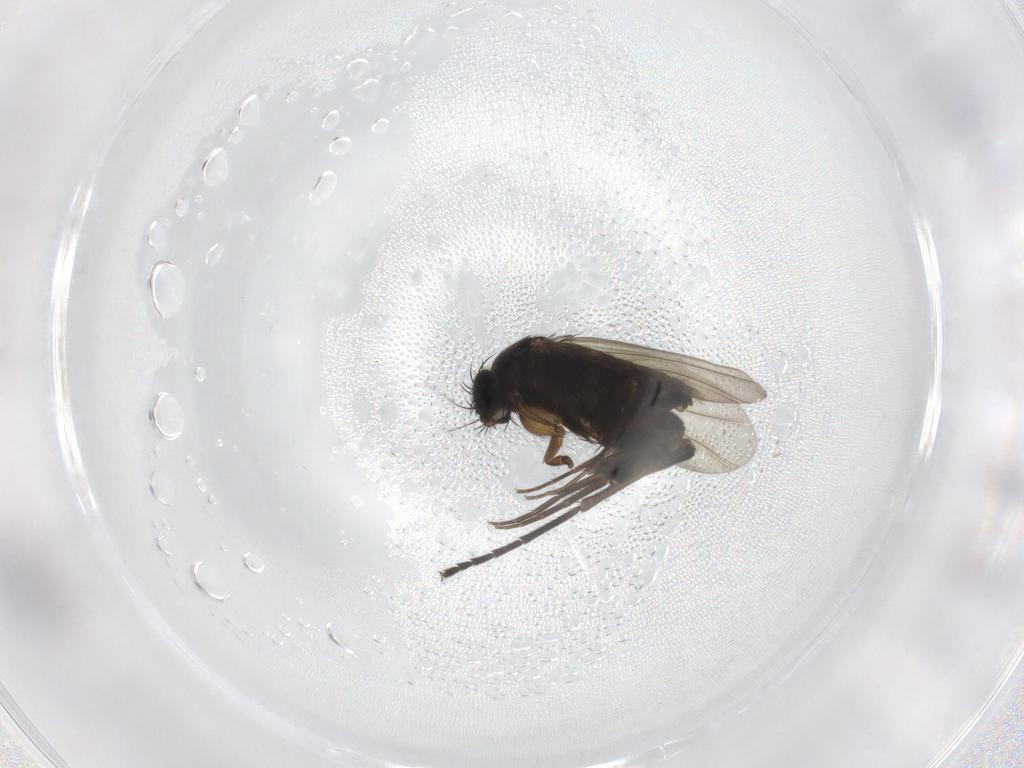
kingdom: Animalia
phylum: Arthropoda
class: Insecta
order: Diptera
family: Phoridae
